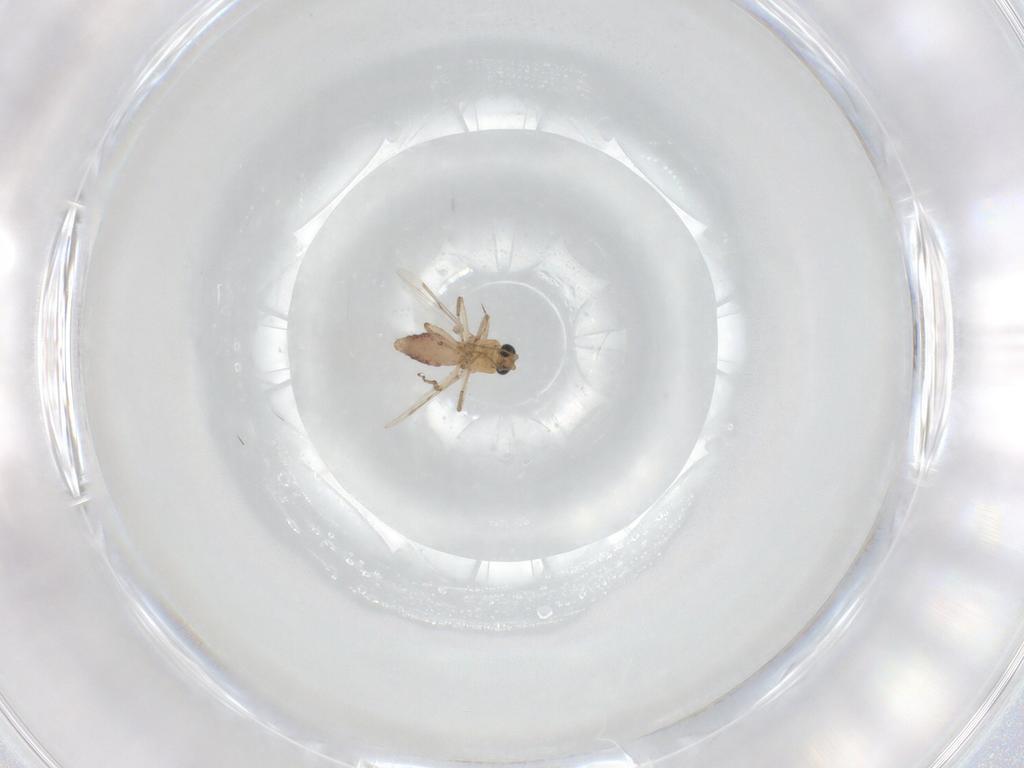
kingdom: Animalia
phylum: Arthropoda
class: Insecta
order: Diptera
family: Ceratopogonidae
